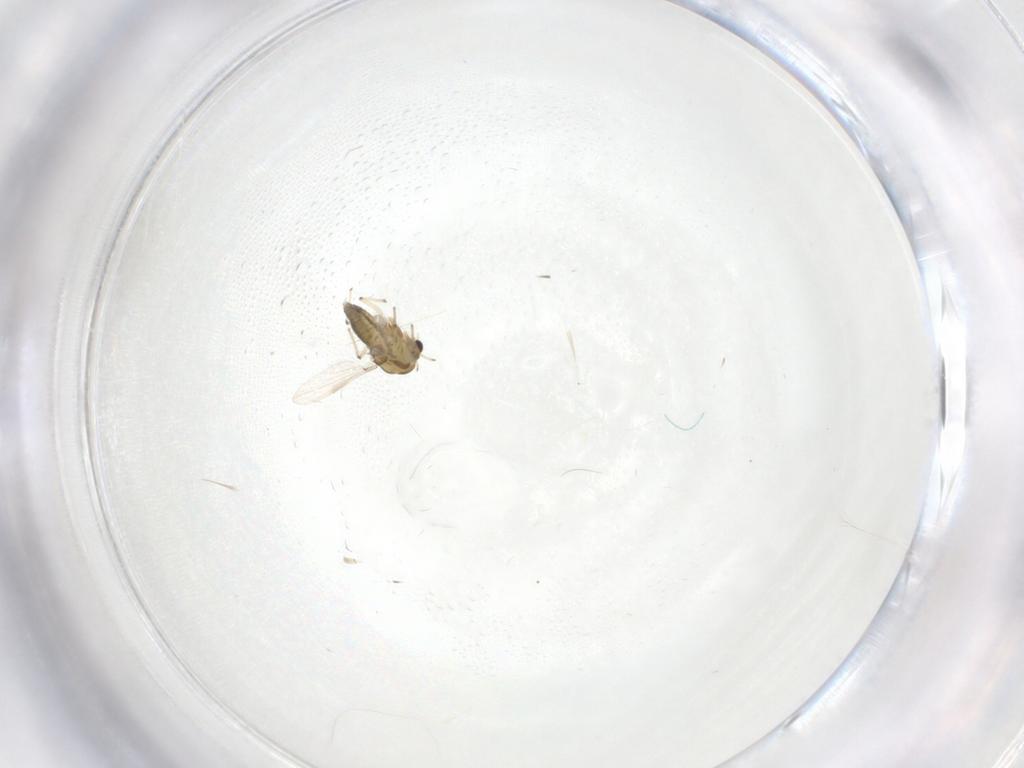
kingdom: Animalia
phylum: Arthropoda
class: Insecta
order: Diptera
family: Chironomidae
